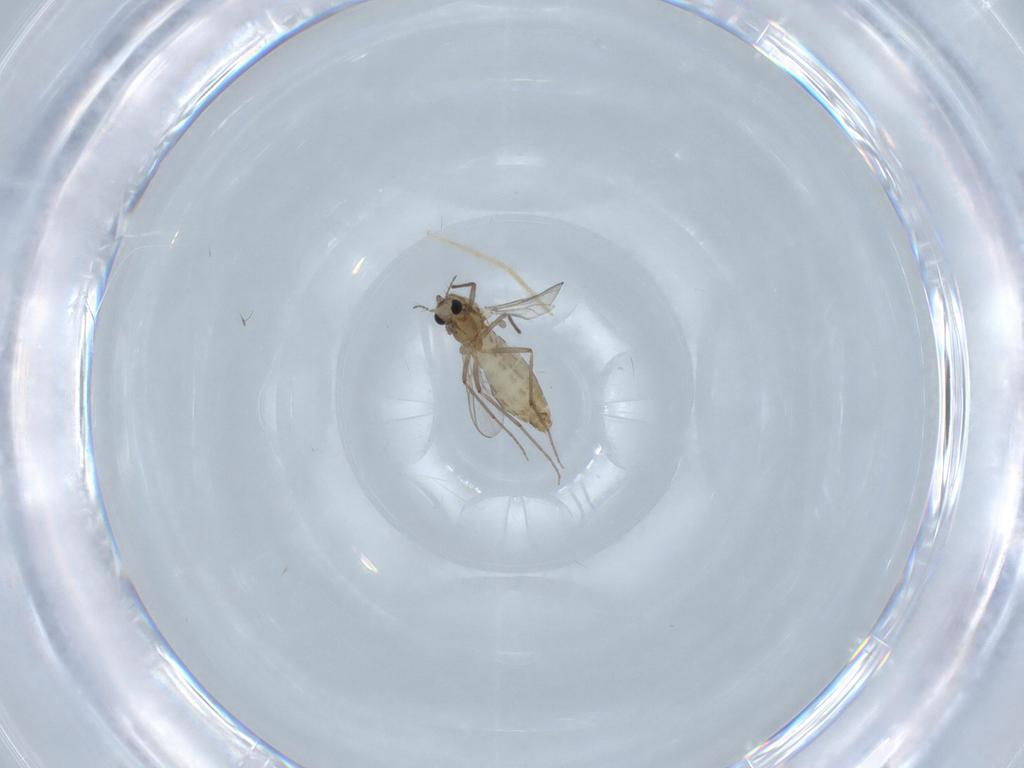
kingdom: Animalia
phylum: Arthropoda
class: Insecta
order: Diptera
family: Chironomidae
